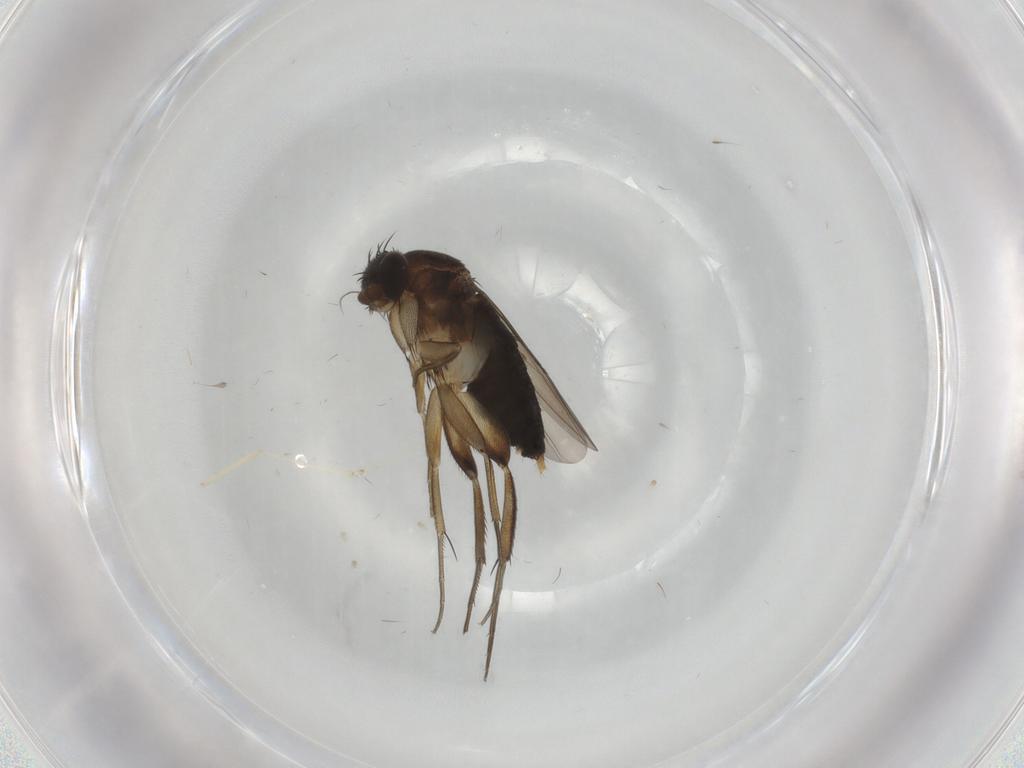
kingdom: Animalia
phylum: Arthropoda
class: Insecta
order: Diptera
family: Phoridae
